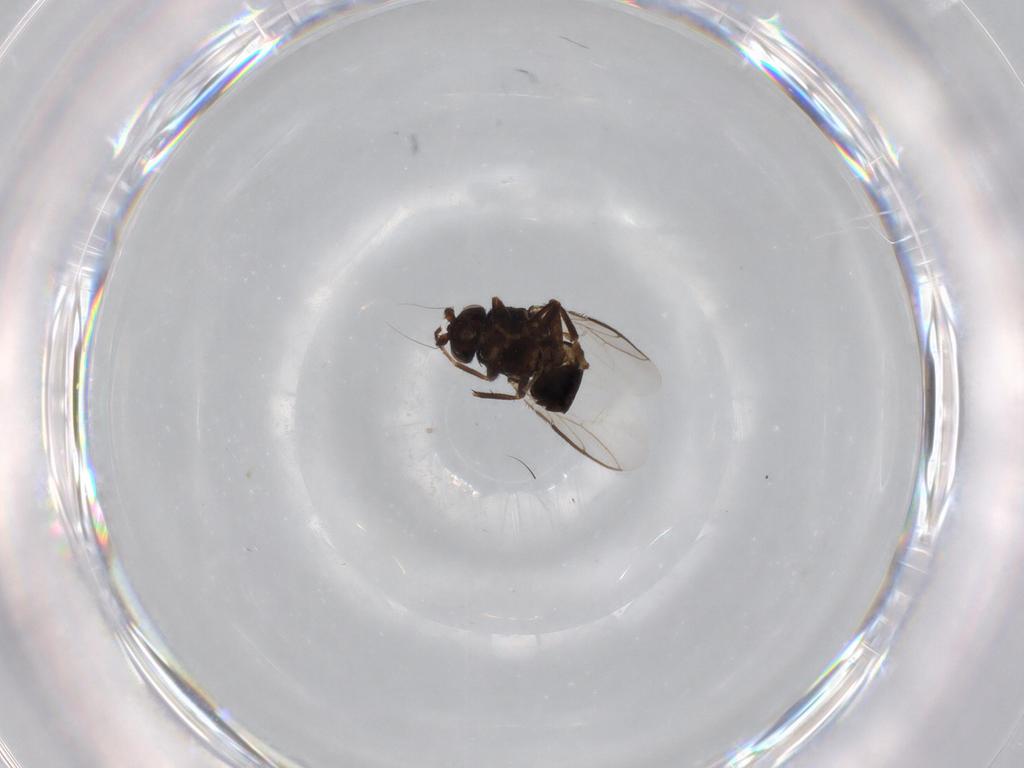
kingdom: Animalia
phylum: Arthropoda
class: Insecta
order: Diptera
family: Sphaeroceridae
